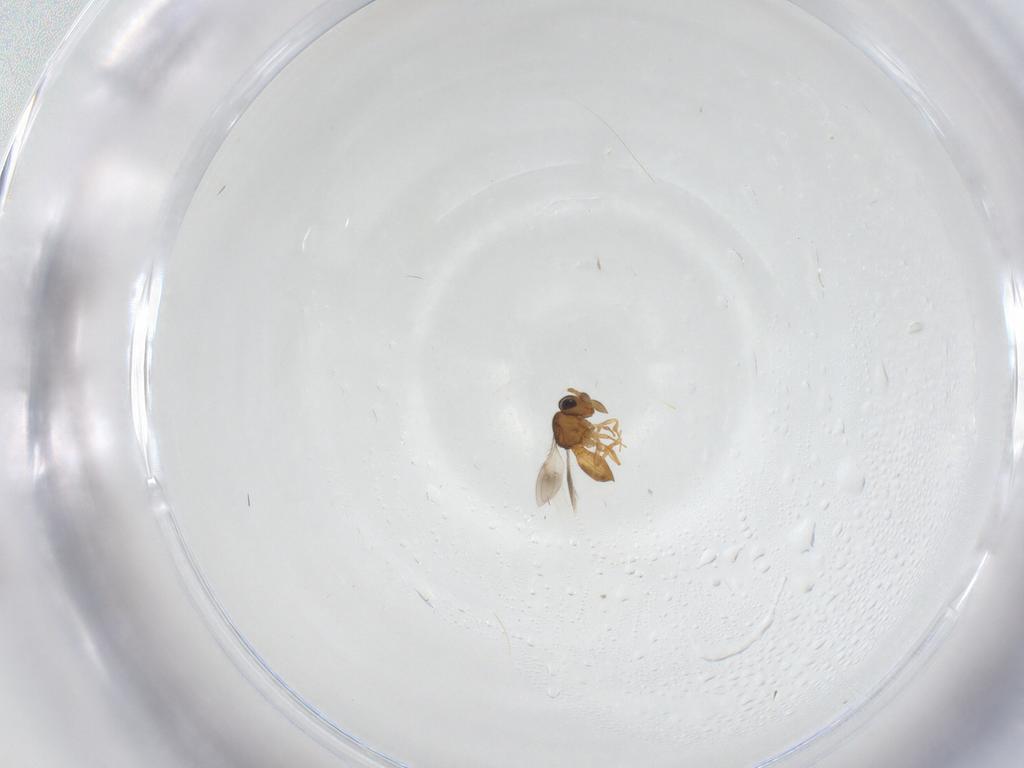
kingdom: Animalia
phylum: Arthropoda
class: Insecta
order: Hymenoptera
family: Scelionidae
